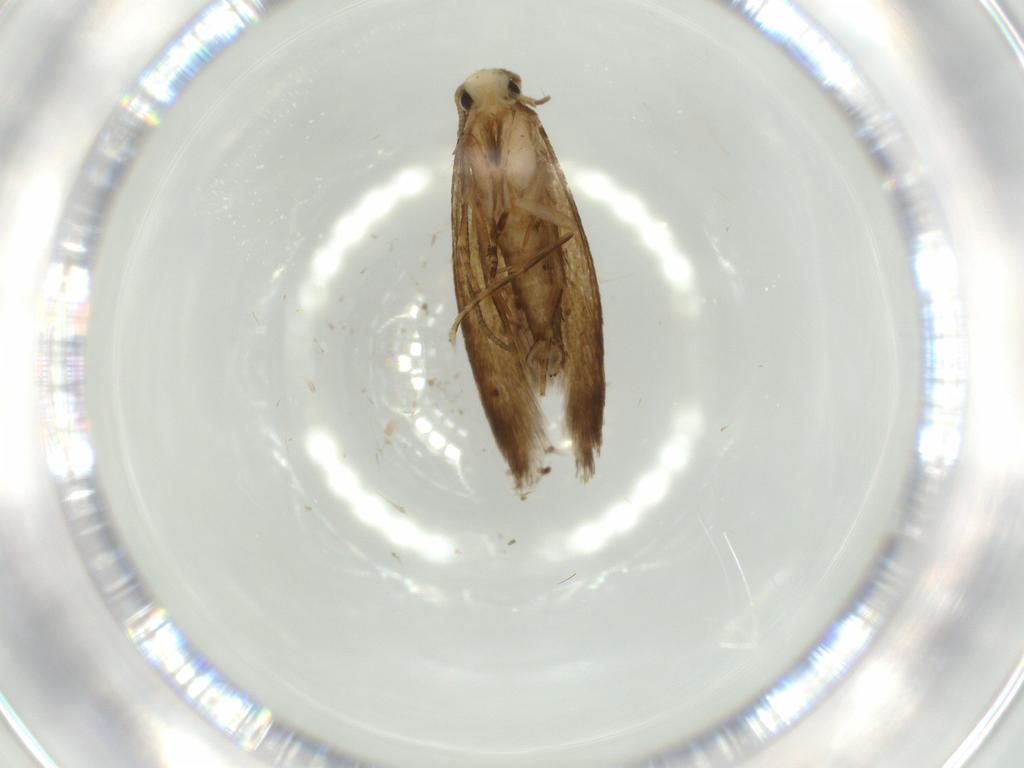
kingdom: Animalia
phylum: Arthropoda
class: Insecta
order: Lepidoptera
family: Tineidae
